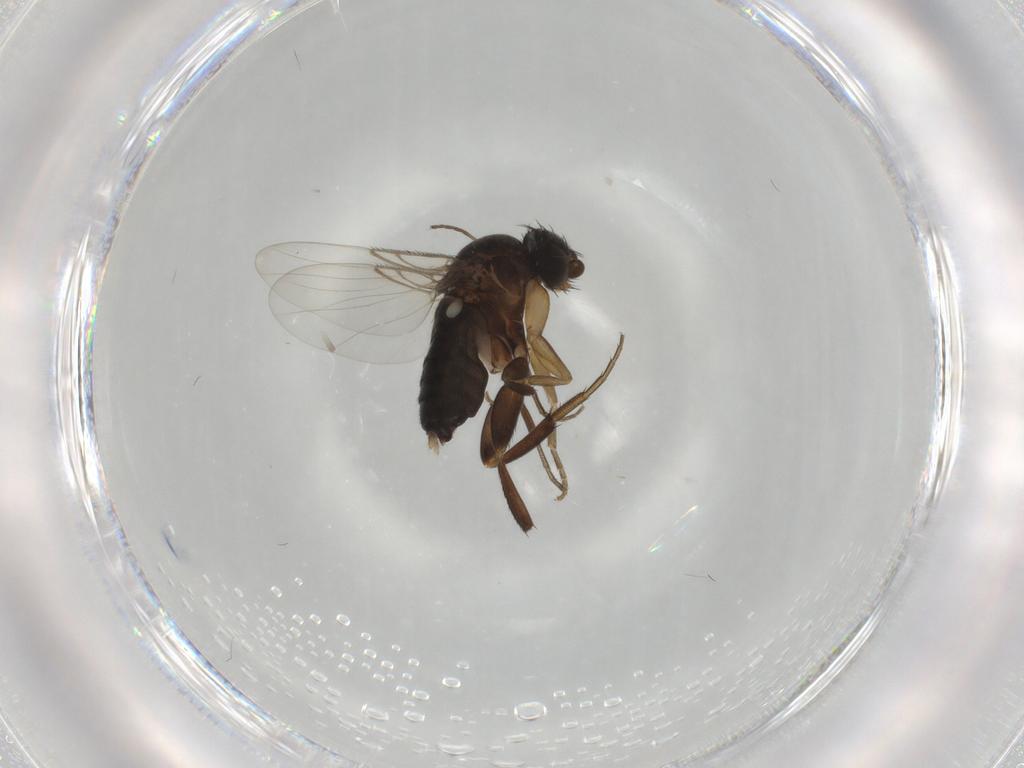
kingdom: Animalia
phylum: Arthropoda
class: Insecta
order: Diptera
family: Phoridae
